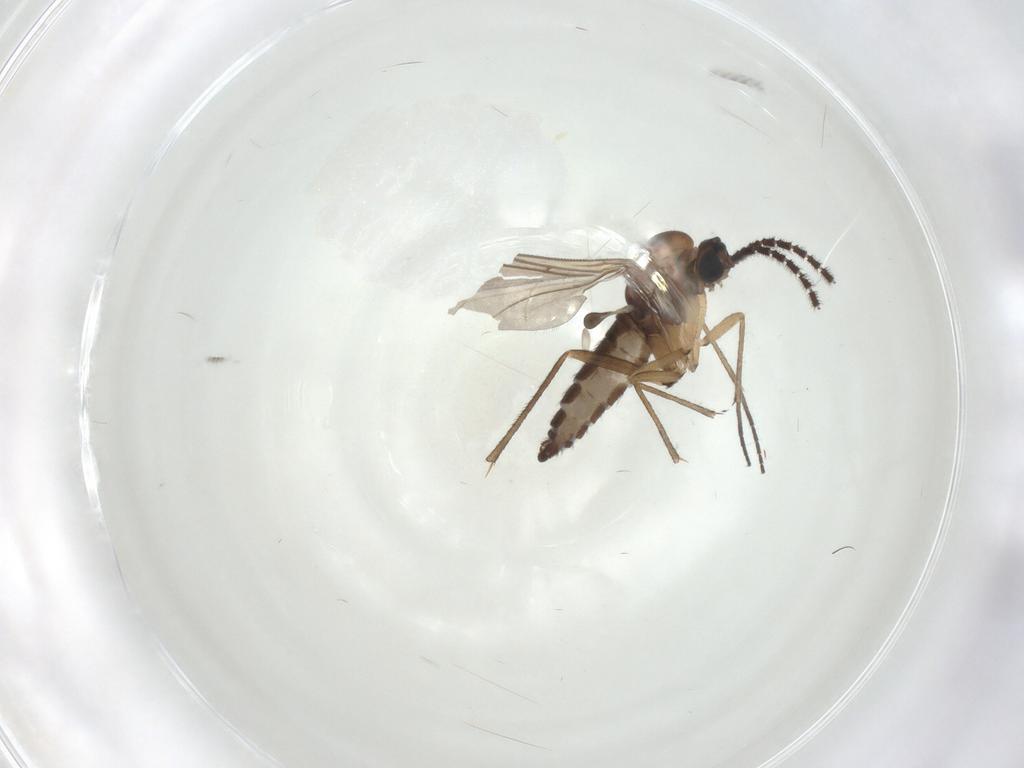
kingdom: Animalia
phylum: Arthropoda
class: Insecta
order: Diptera
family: Sciaridae
